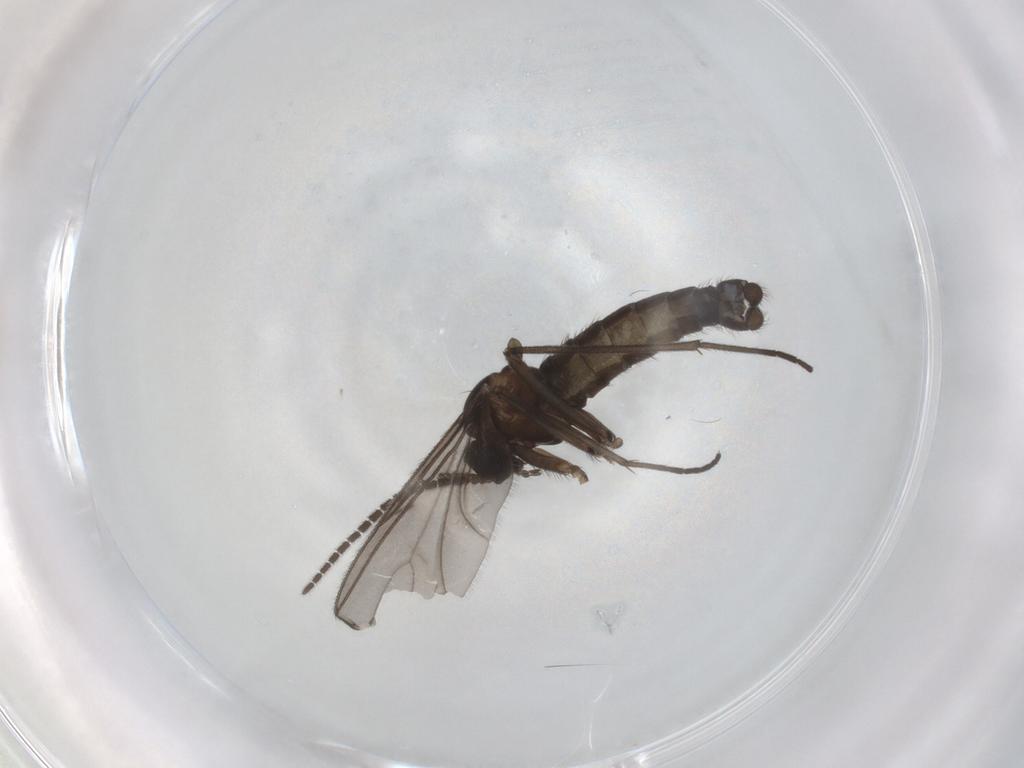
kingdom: Animalia
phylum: Arthropoda
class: Insecta
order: Diptera
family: Sciaridae
